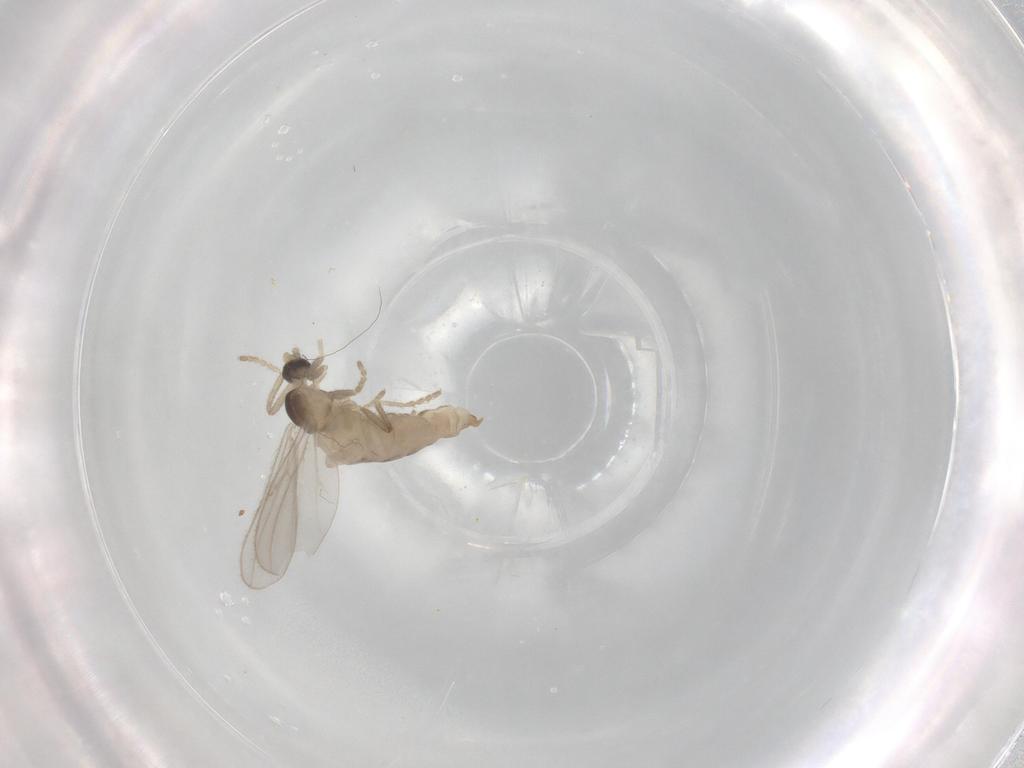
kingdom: Animalia
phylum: Arthropoda
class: Insecta
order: Diptera
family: Cecidomyiidae
